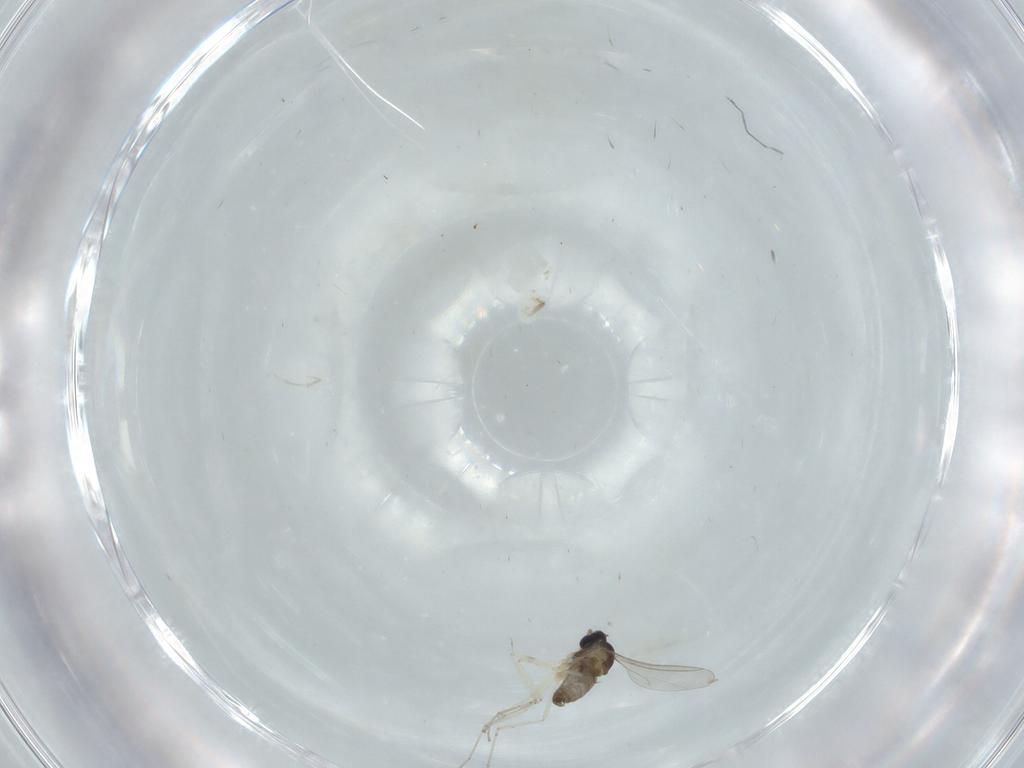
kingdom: Animalia
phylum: Arthropoda
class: Insecta
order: Diptera
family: Cecidomyiidae
